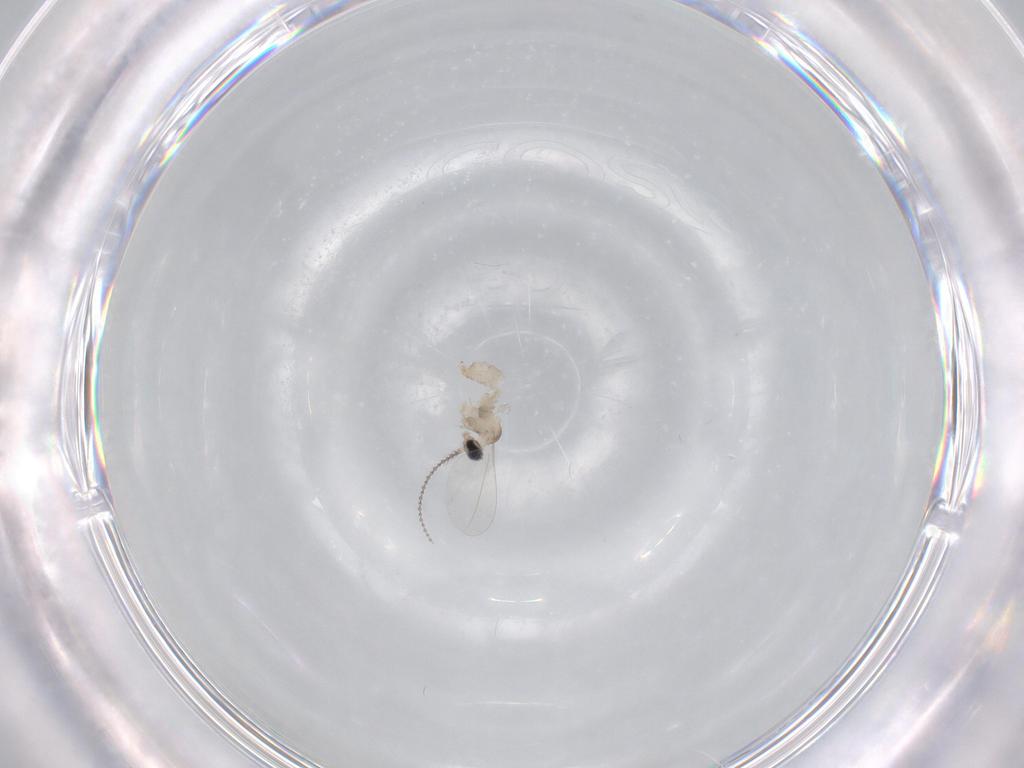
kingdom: Animalia
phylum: Arthropoda
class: Insecta
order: Diptera
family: Cecidomyiidae
